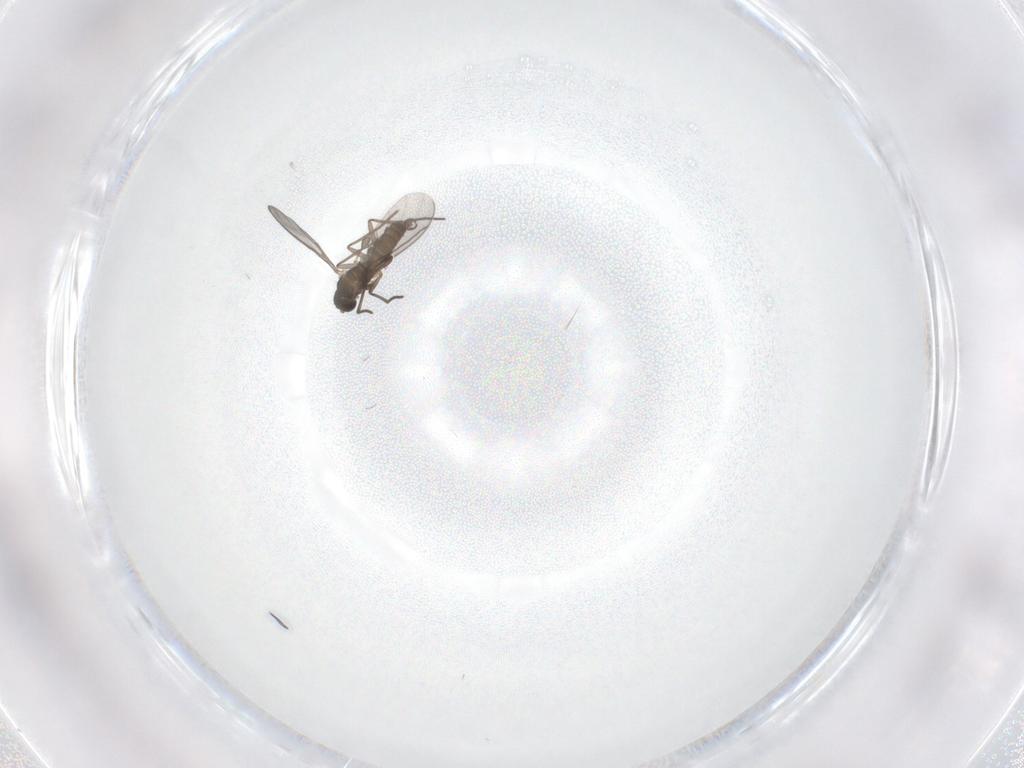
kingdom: Animalia
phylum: Arthropoda
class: Insecta
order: Diptera
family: Sciaridae
